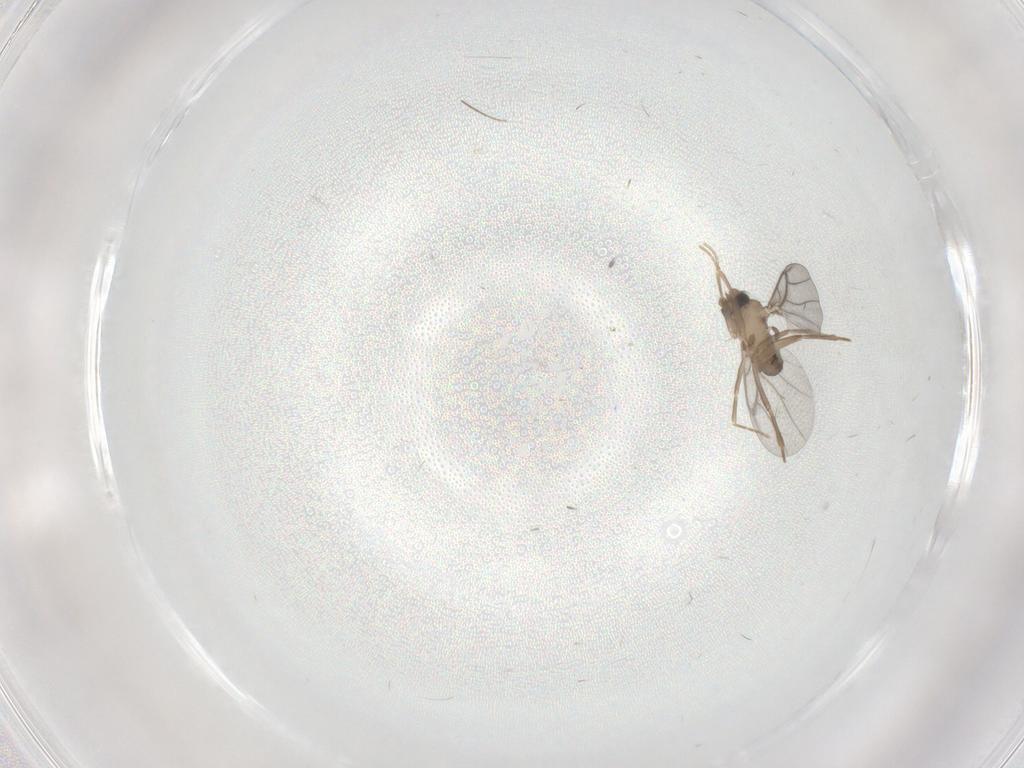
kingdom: Animalia
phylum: Arthropoda
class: Insecta
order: Diptera
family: Chironomidae
